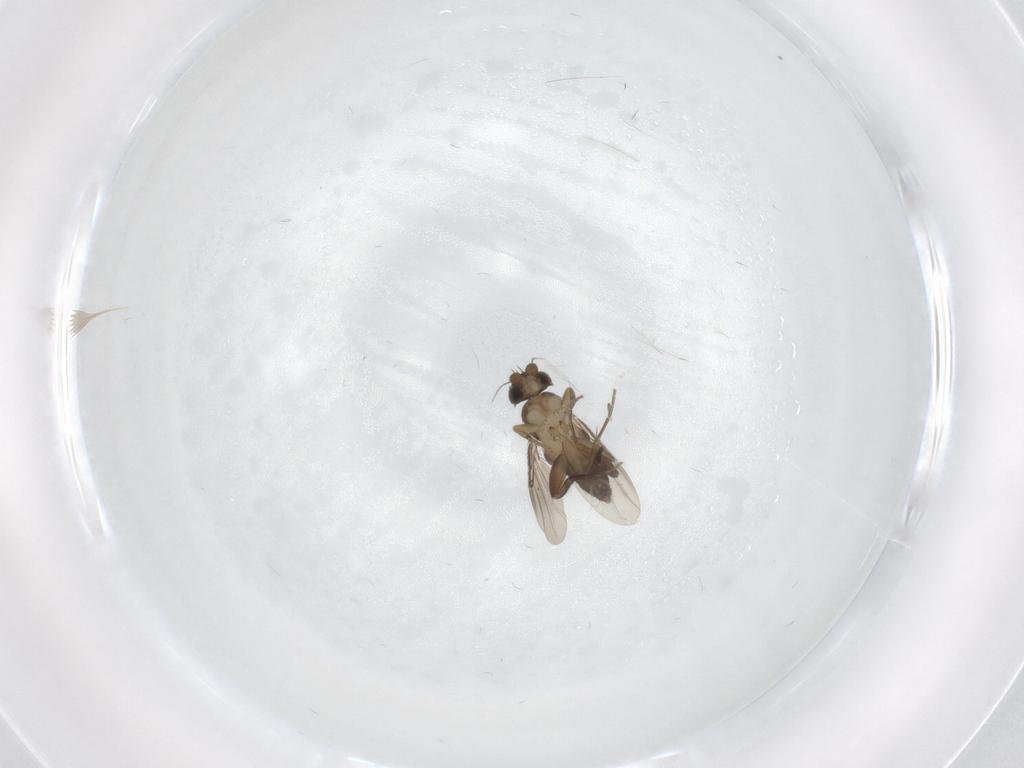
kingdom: Animalia
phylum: Arthropoda
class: Insecta
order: Diptera
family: Phoridae
